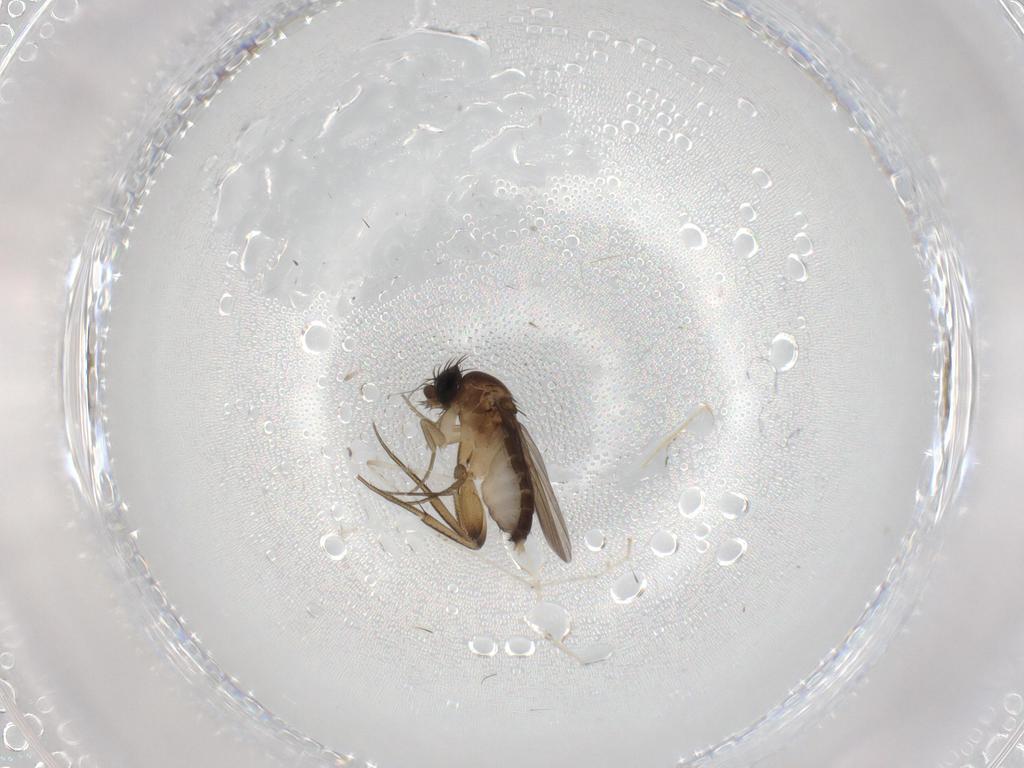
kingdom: Animalia
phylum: Arthropoda
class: Insecta
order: Diptera
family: Phoridae
